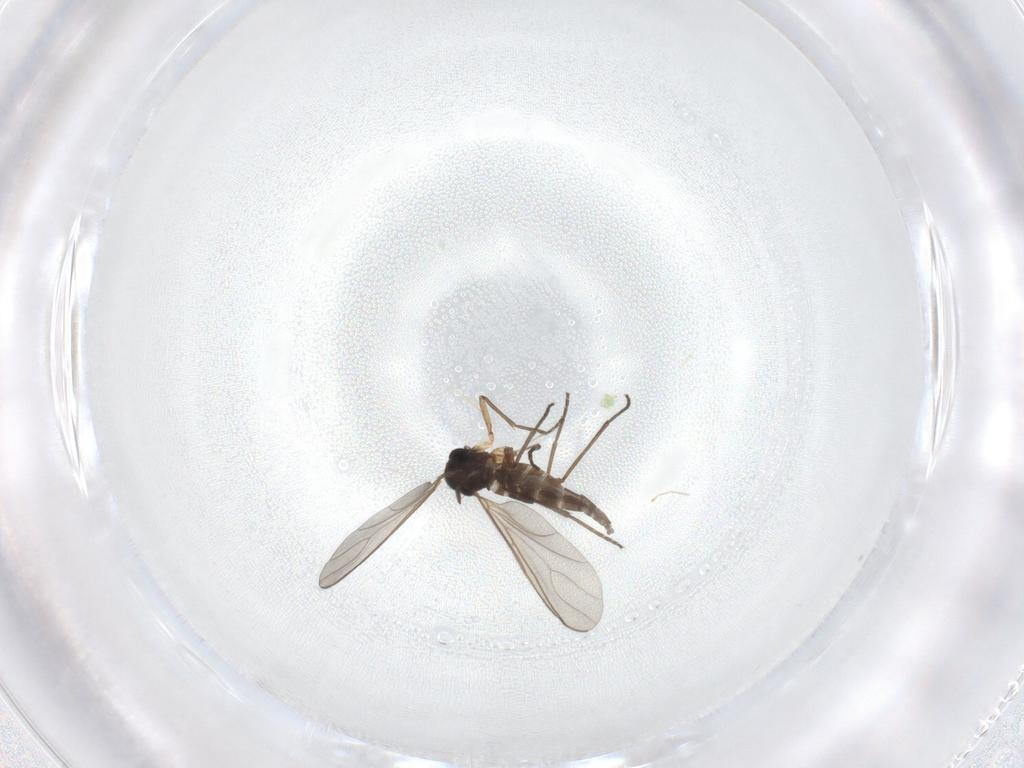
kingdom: Animalia
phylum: Arthropoda
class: Insecta
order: Diptera
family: Sciaridae
